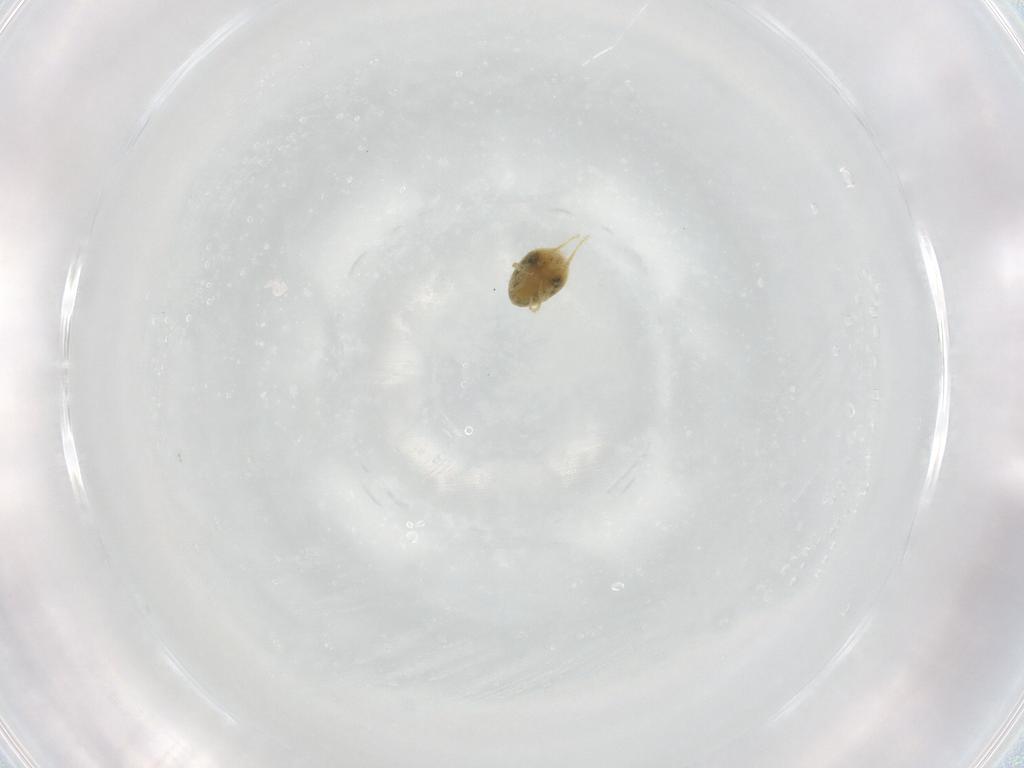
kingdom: Animalia
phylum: Arthropoda
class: Arachnida
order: Trombidiformes
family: Tetranychidae
